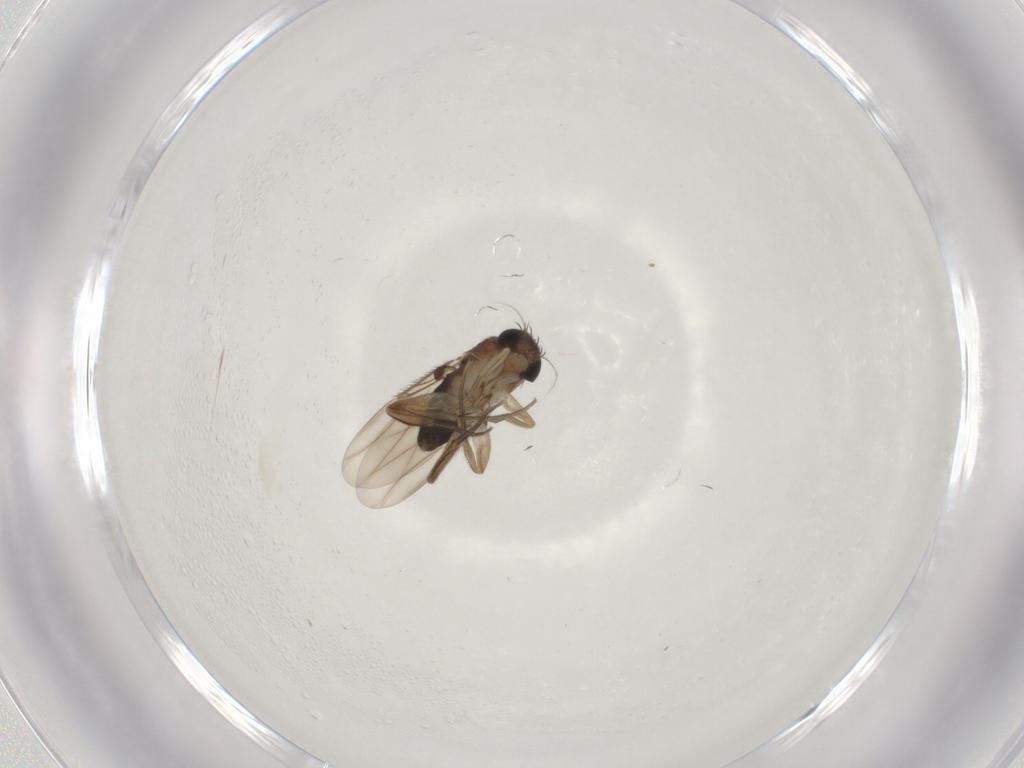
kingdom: Animalia
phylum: Arthropoda
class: Insecta
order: Diptera
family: Phoridae
